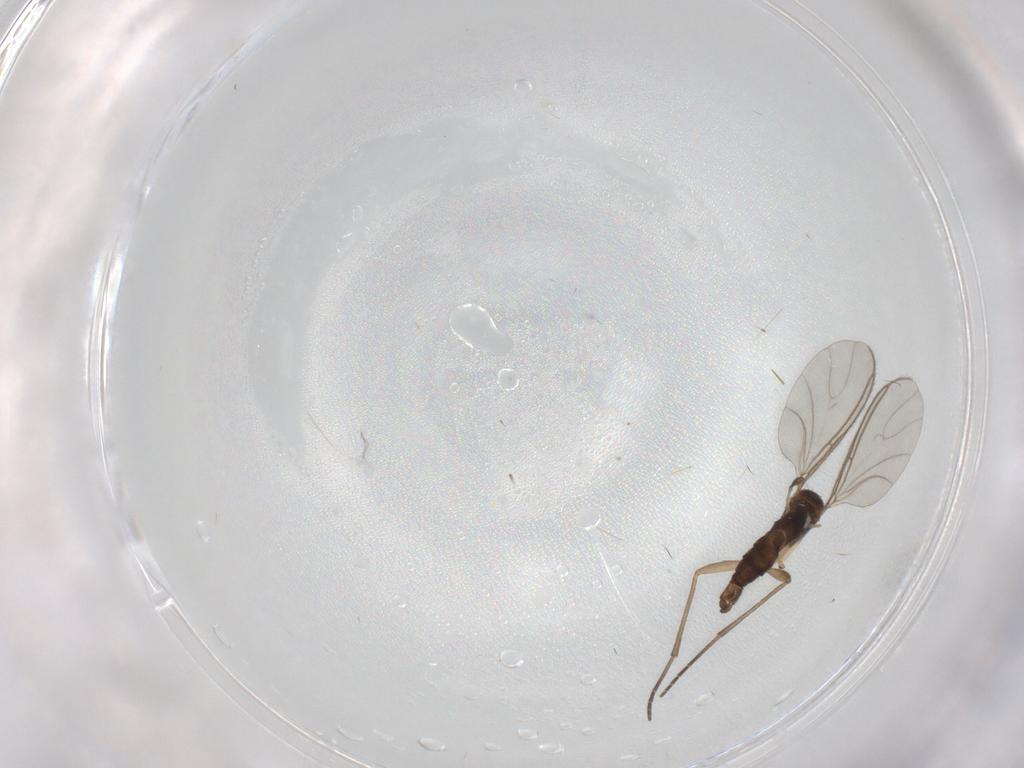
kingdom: Animalia
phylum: Arthropoda
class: Insecta
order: Diptera
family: Sciaridae
